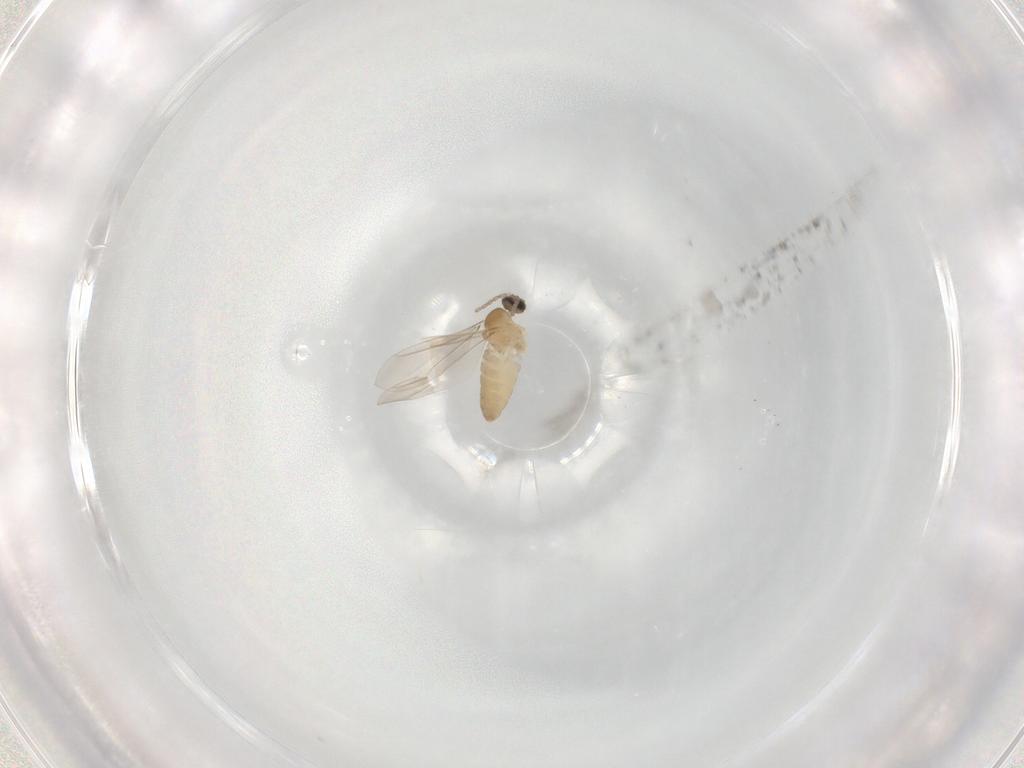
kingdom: Animalia
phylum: Arthropoda
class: Insecta
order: Diptera
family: Cecidomyiidae
